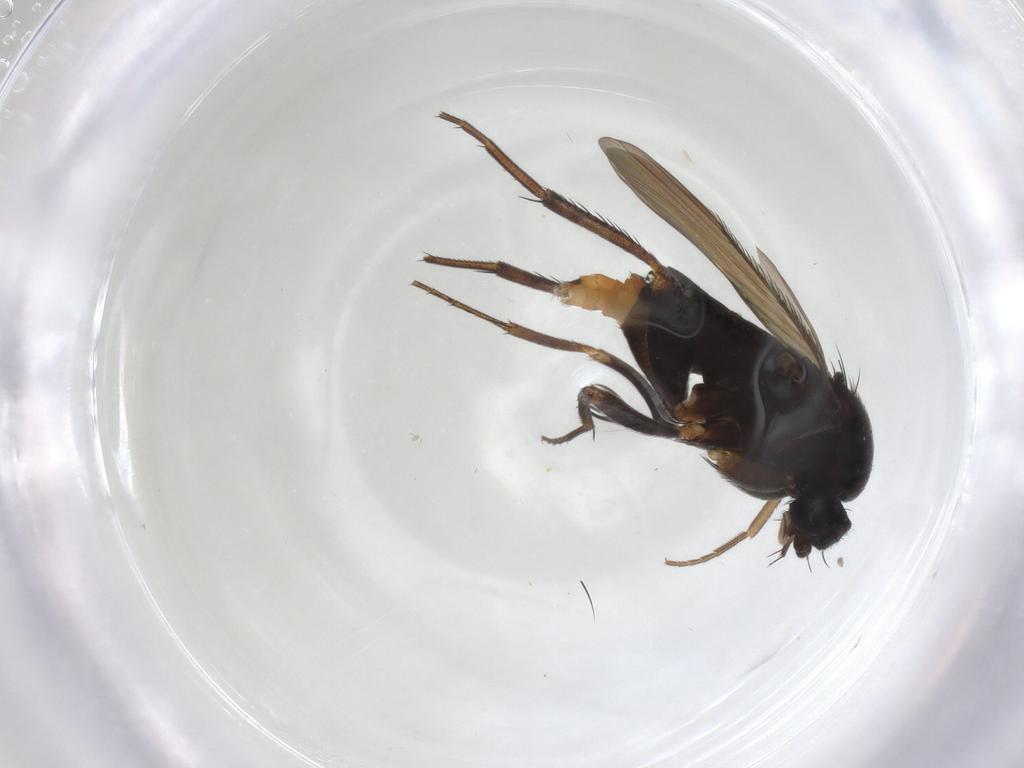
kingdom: Animalia
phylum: Arthropoda
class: Insecta
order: Diptera
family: Phoridae
